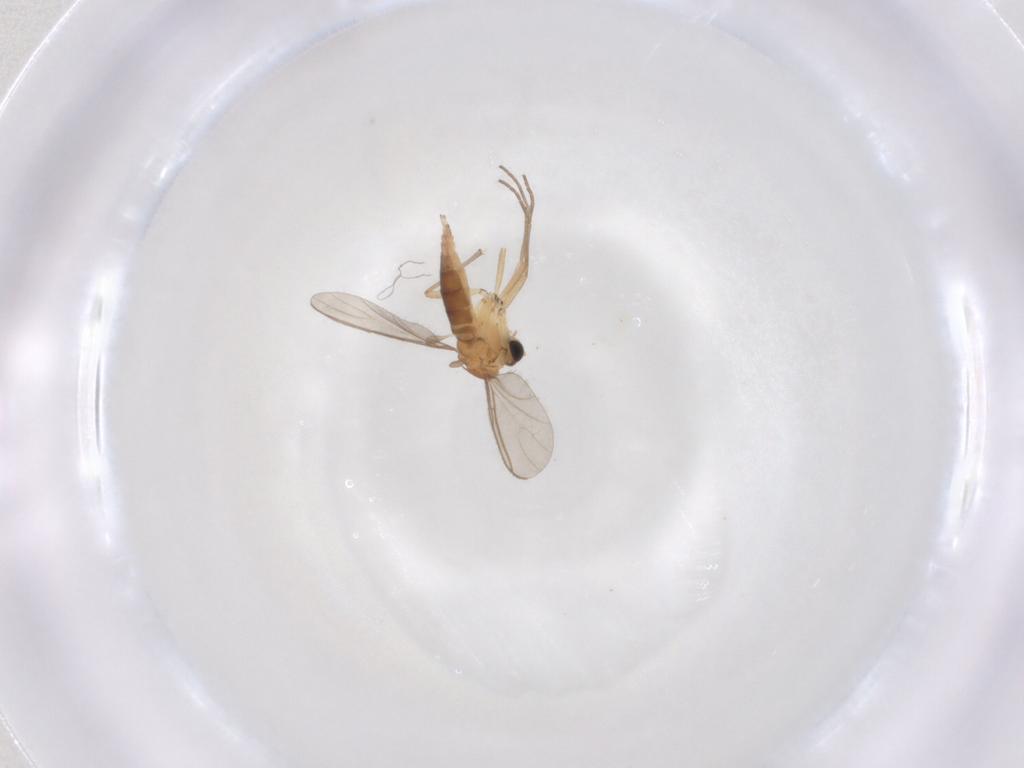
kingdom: Animalia
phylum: Arthropoda
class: Insecta
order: Diptera
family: Sciaridae
